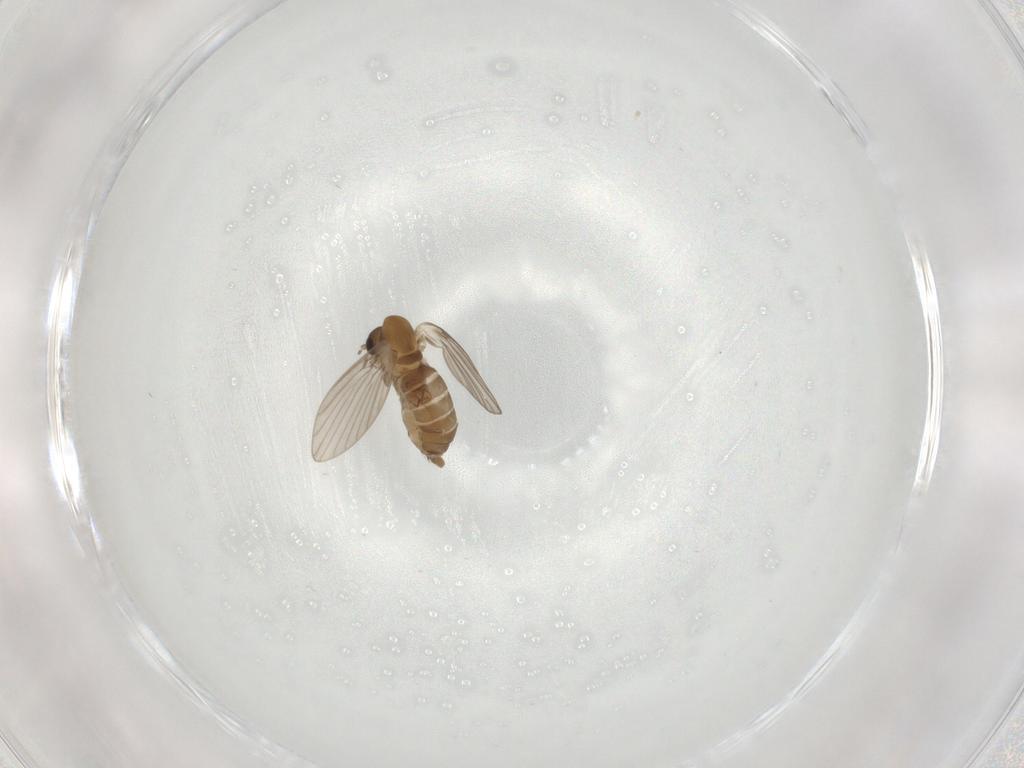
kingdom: Animalia
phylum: Arthropoda
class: Insecta
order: Diptera
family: Psychodidae
